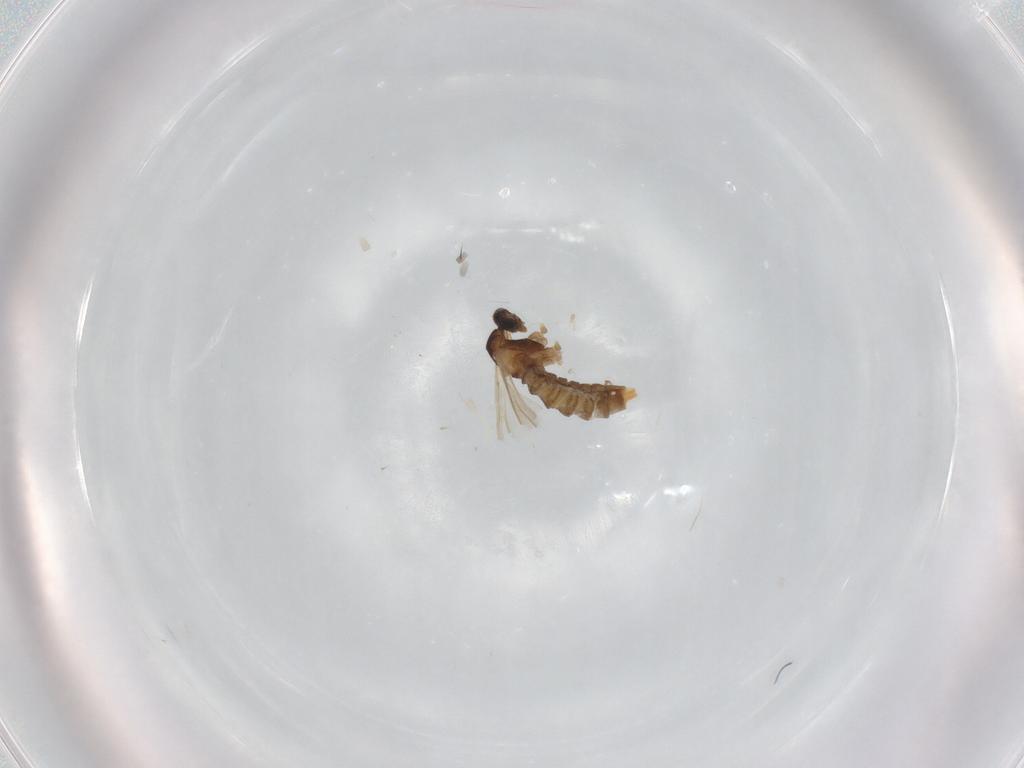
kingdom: Animalia
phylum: Arthropoda
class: Insecta
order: Diptera
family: Cecidomyiidae
